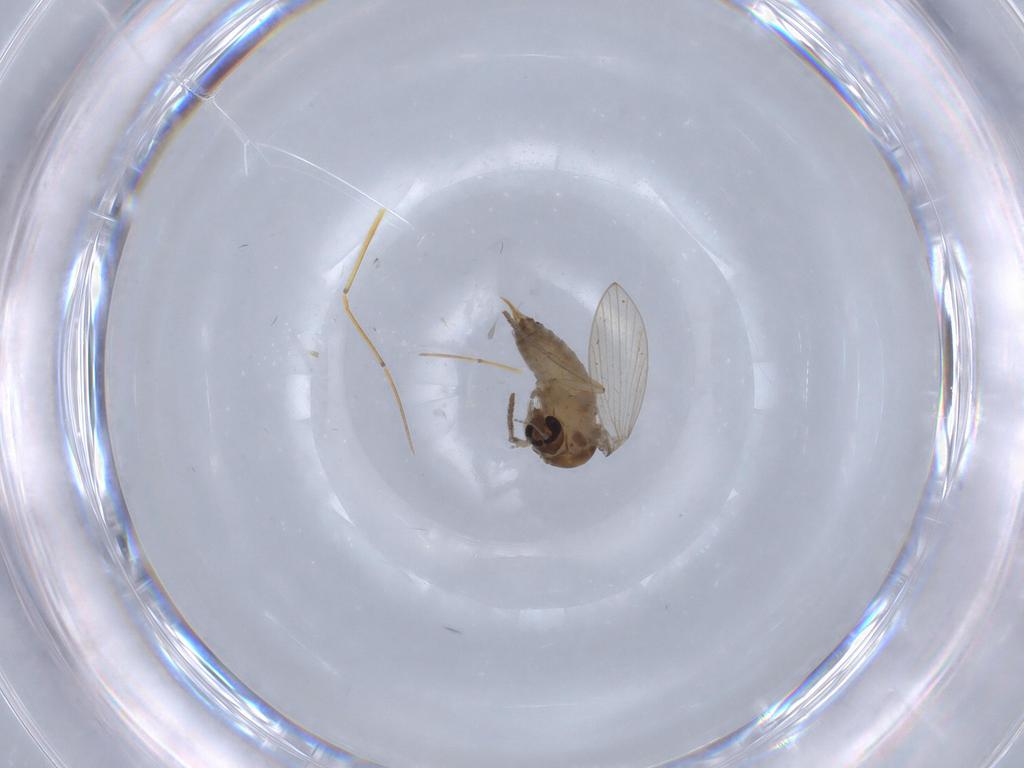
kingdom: Animalia
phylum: Arthropoda
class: Insecta
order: Diptera
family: Psychodidae
